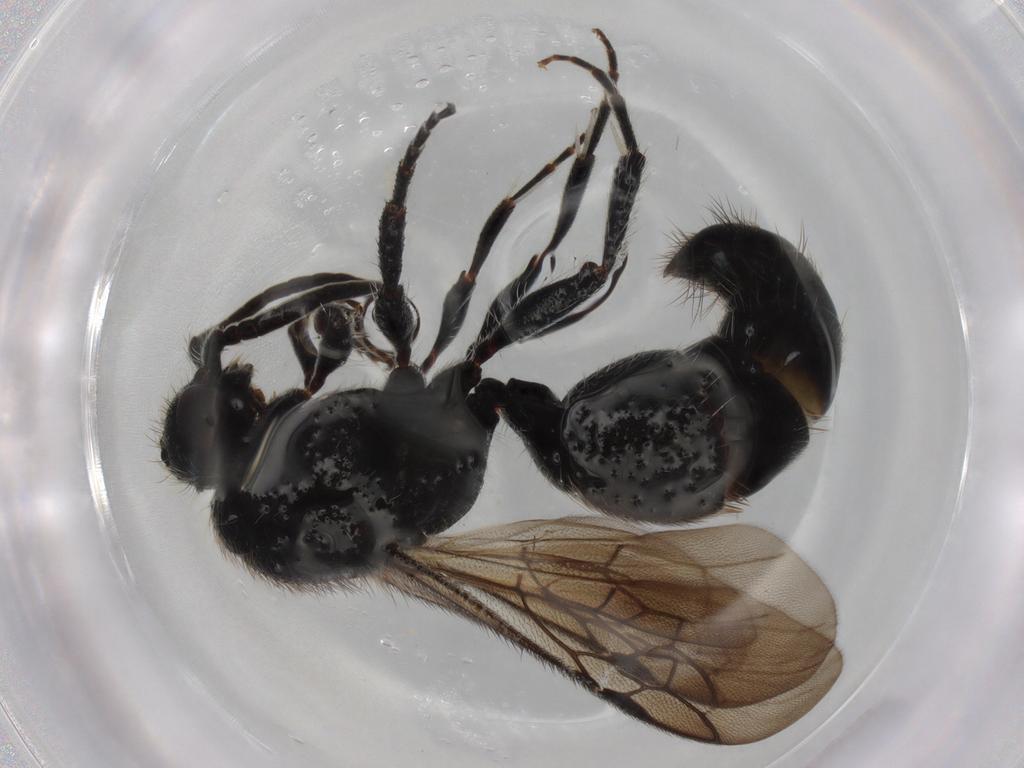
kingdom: Animalia
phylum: Arthropoda
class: Insecta
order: Hymenoptera
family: Mutillidae
